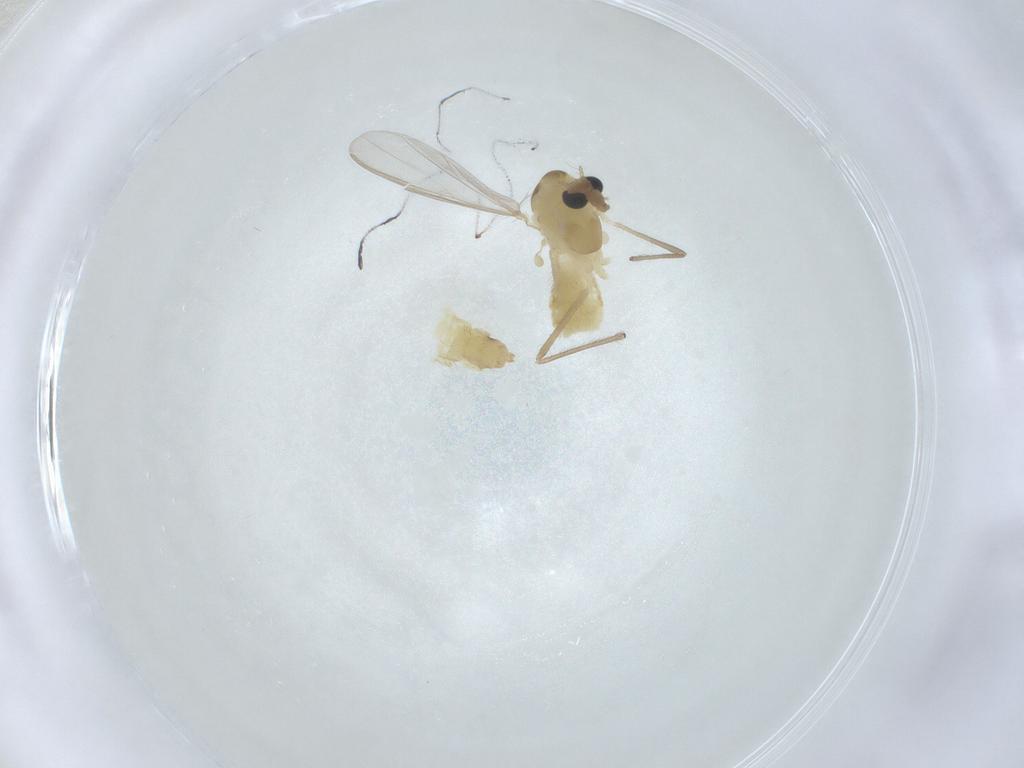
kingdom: Animalia
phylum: Arthropoda
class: Insecta
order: Diptera
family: Chironomidae
